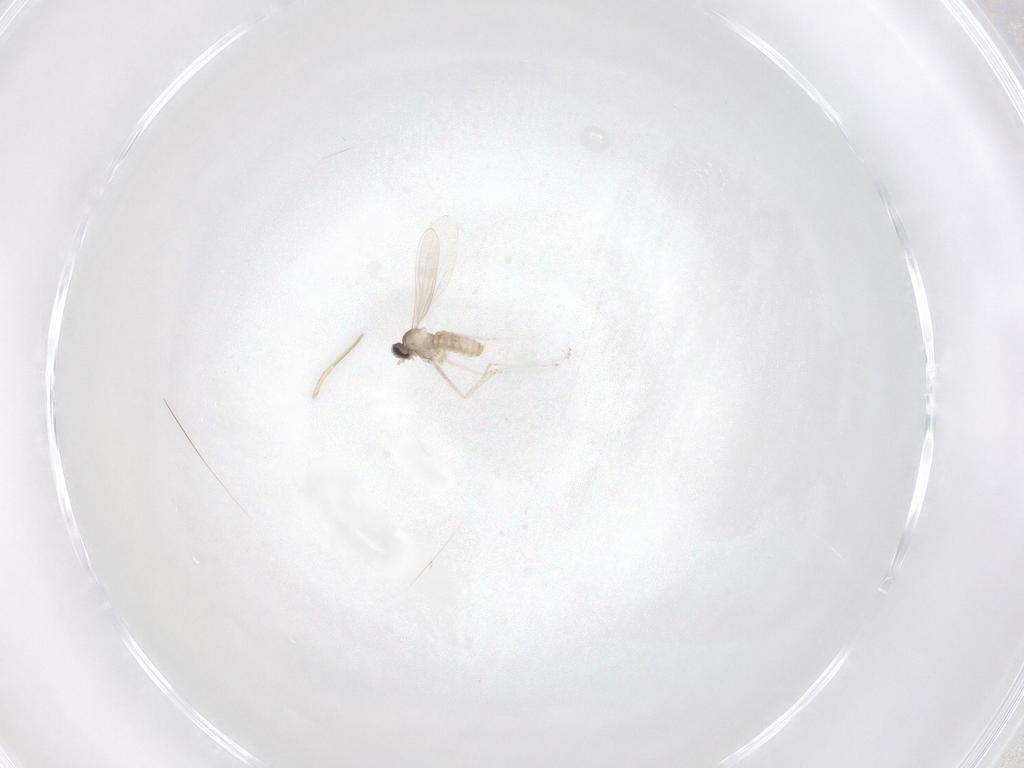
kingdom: Animalia
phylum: Arthropoda
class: Insecta
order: Diptera
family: Cecidomyiidae
